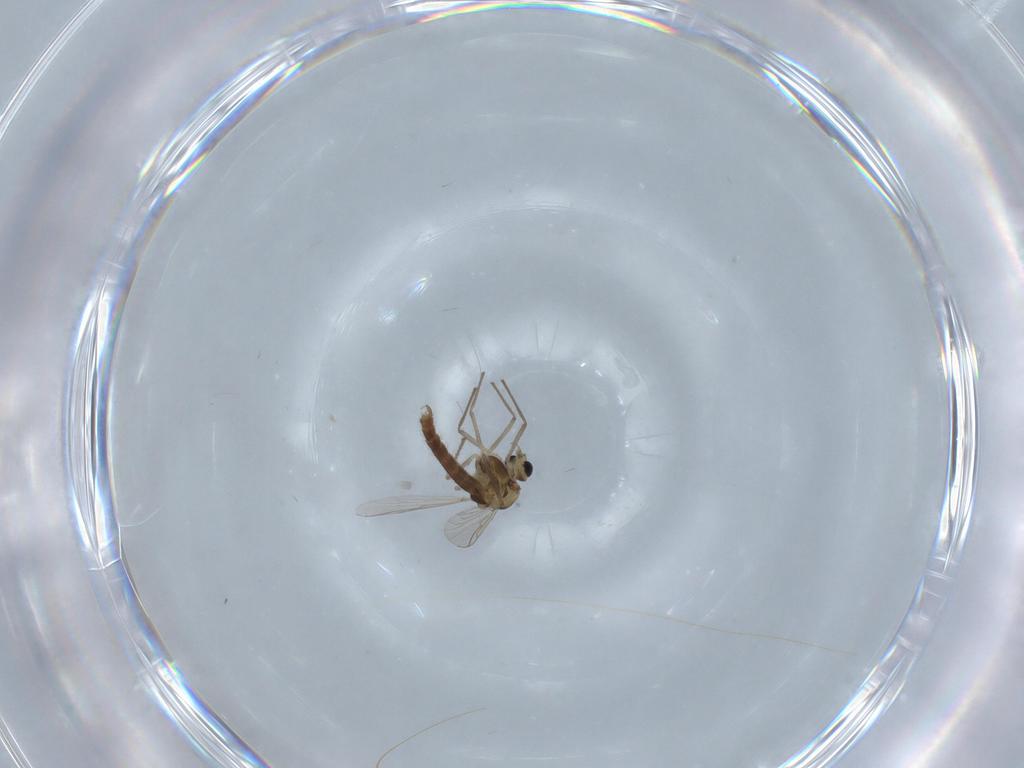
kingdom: Animalia
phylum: Arthropoda
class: Insecta
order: Diptera
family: Chironomidae
